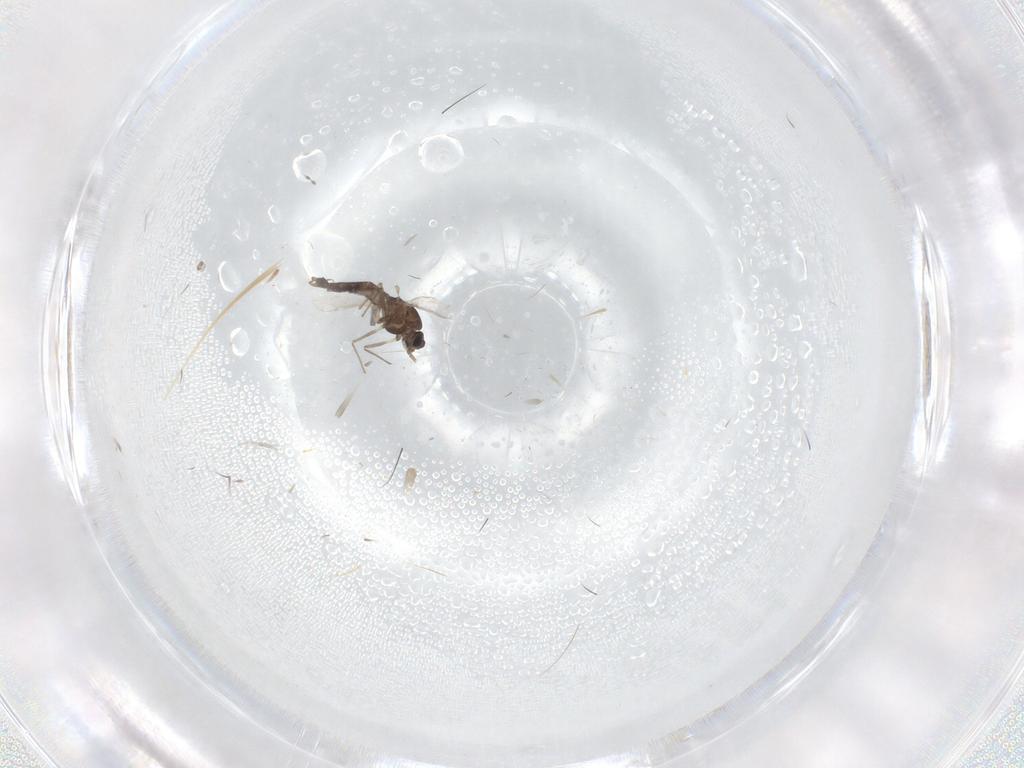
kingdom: Animalia
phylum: Arthropoda
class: Insecta
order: Diptera
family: Chironomidae
